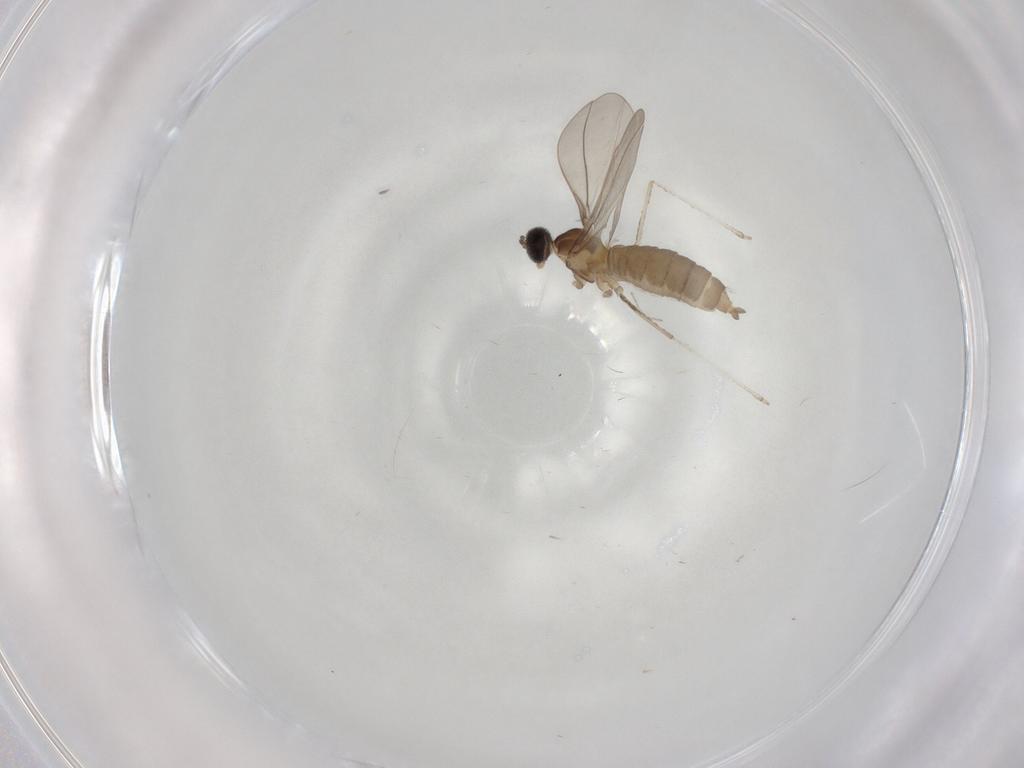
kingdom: Animalia
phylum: Arthropoda
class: Insecta
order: Diptera
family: Cecidomyiidae
